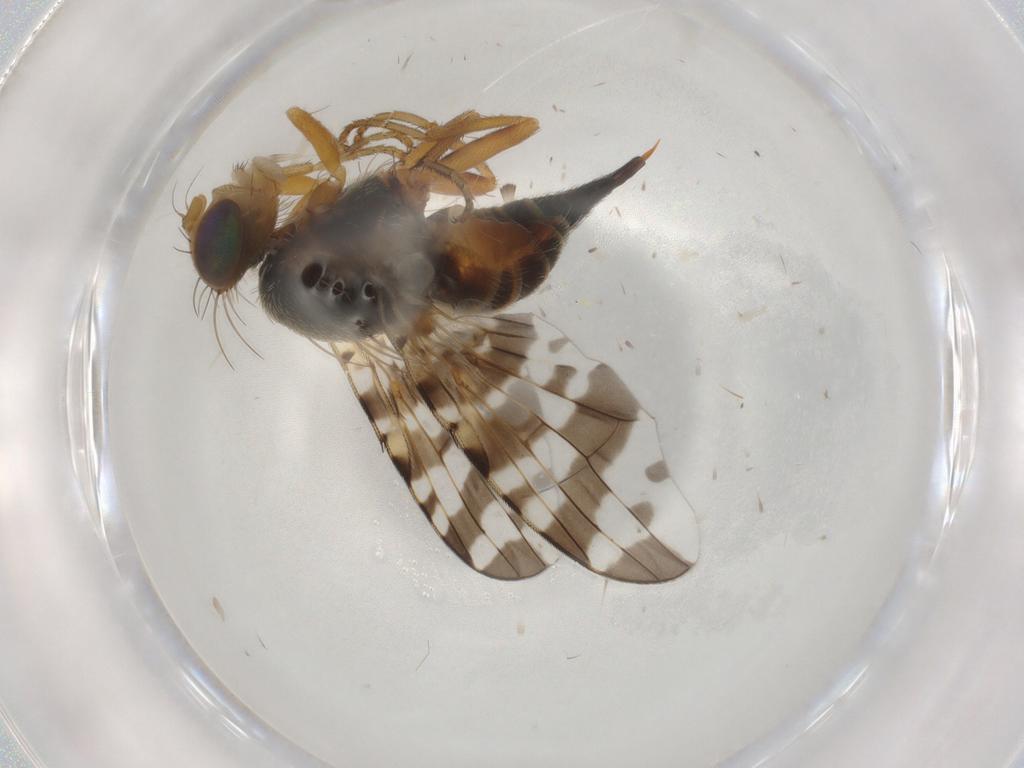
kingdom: Animalia
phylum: Arthropoda
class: Insecta
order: Diptera
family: Tephritidae
